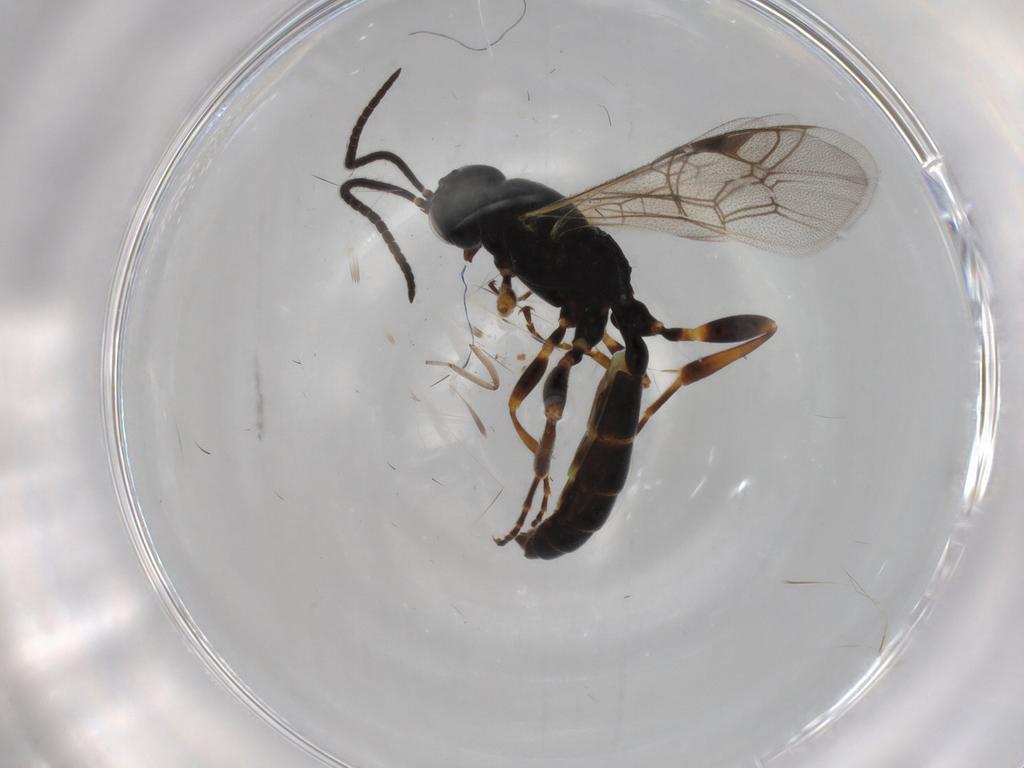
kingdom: Animalia
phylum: Arthropoda
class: Insecta
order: Hymenoptera
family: Ichneumonidae
